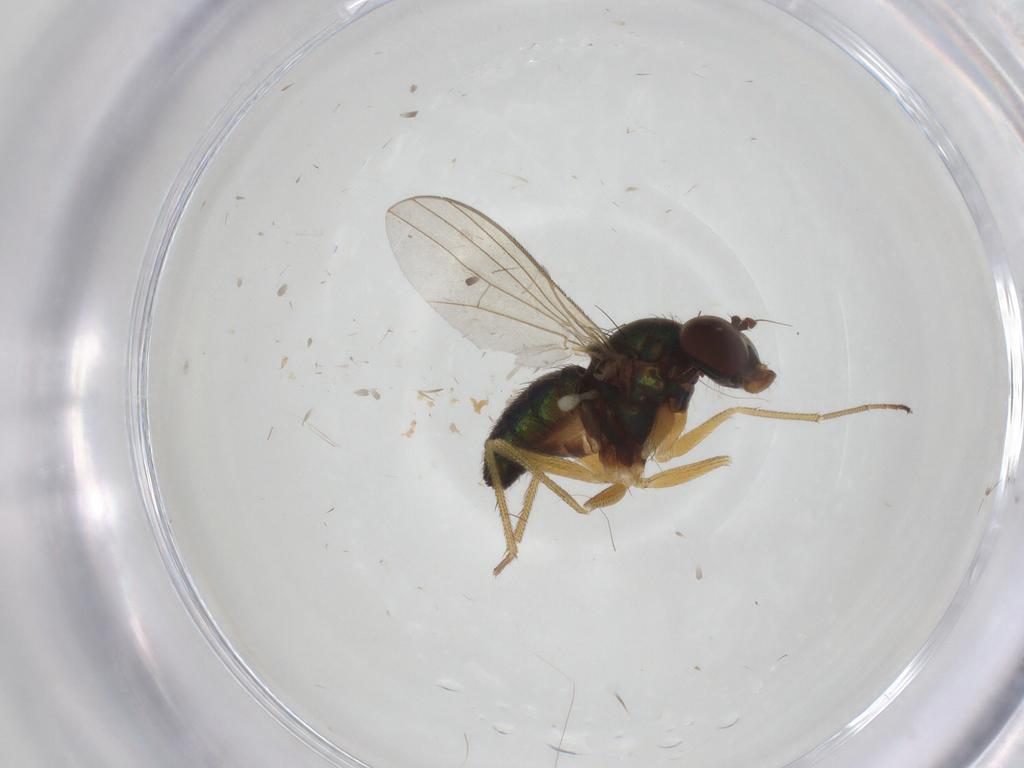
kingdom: Animalia
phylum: Arthropoda
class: Insecta
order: Diptera
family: Dolichopodidae
